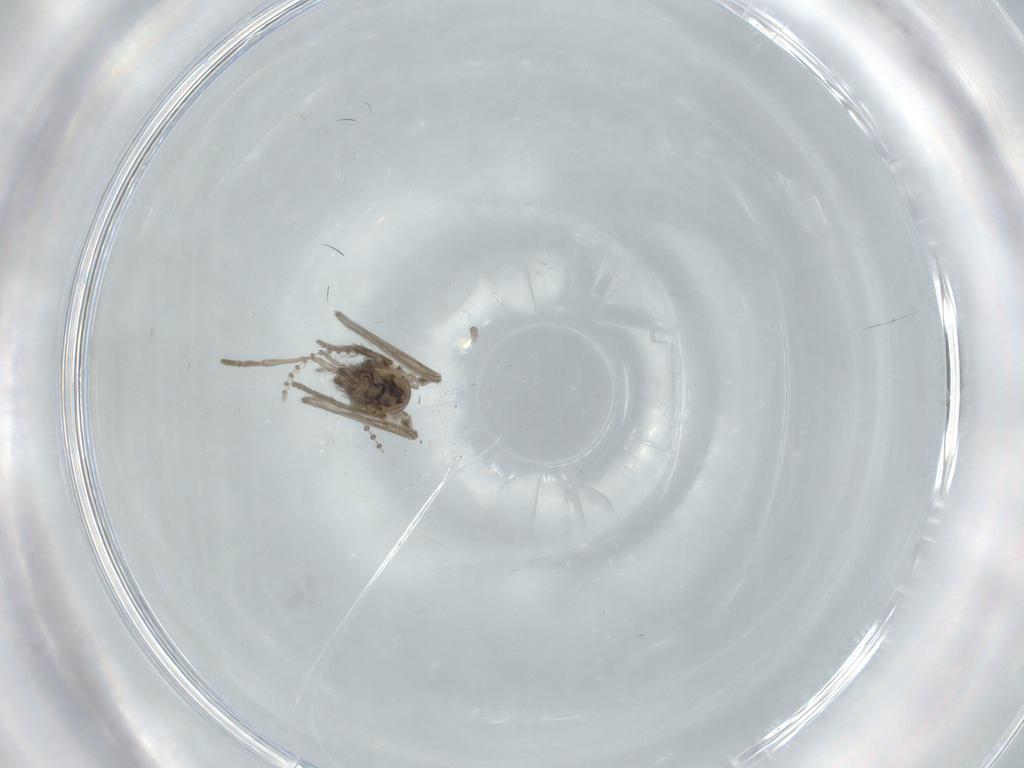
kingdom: Animalia
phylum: Arthropoda
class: Insecta
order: Diptera
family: Psychodidae
